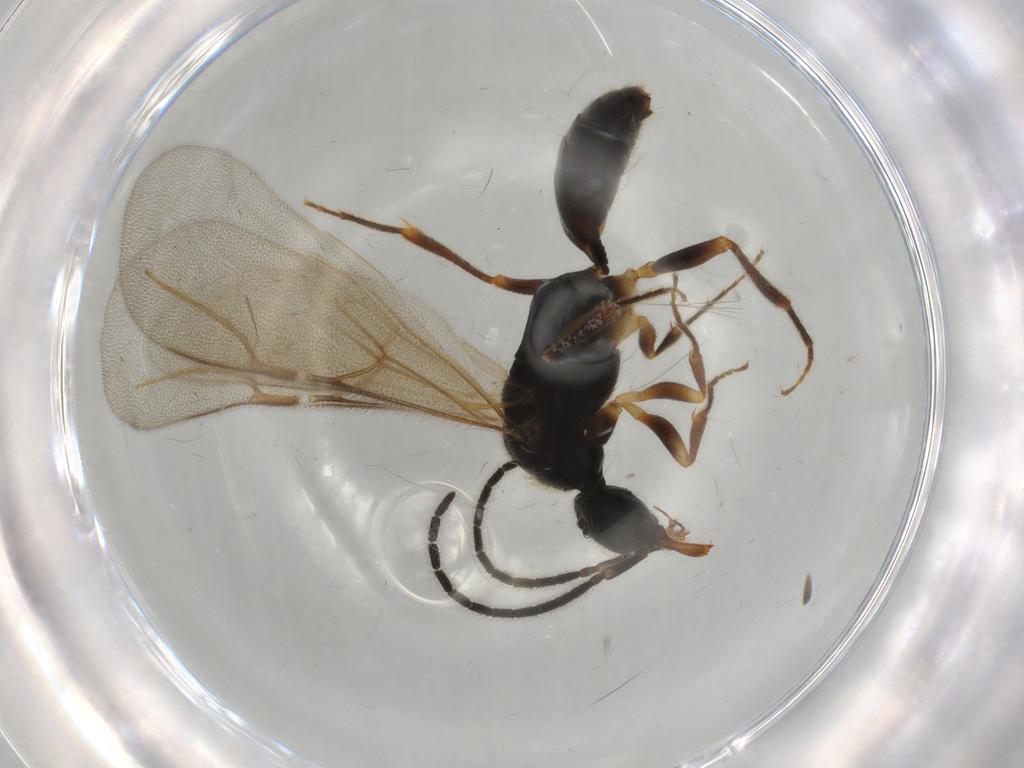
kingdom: Animalia
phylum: Arthropoda
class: Insecta
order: Hymenoptera
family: Bethylidae
